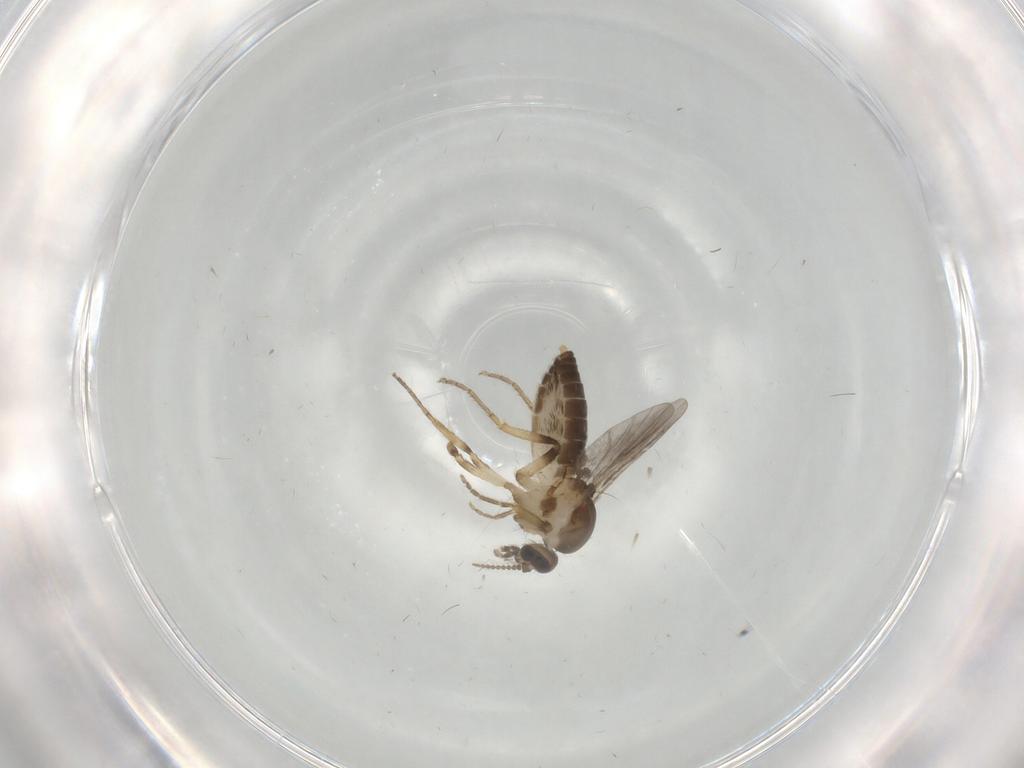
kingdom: Animalia
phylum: Arthropoda
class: Insecta
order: Diptera
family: Ceratopogonidae
